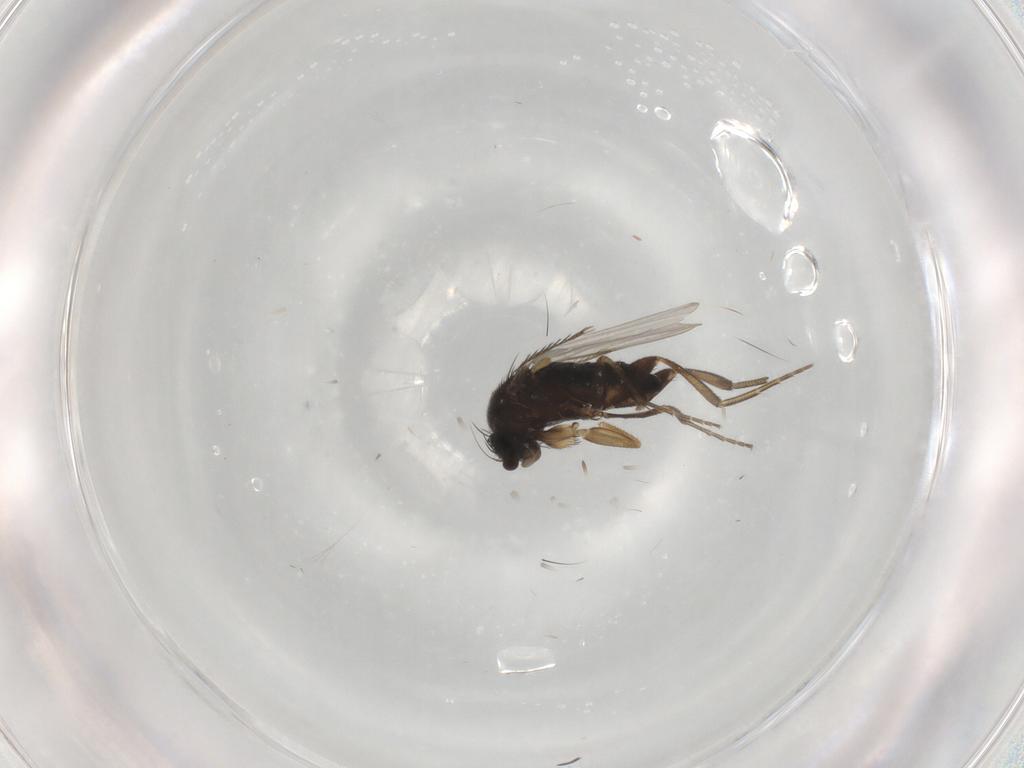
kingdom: Animalia
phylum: Arthropoda
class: Insecta
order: Diptera
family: Phoridae
